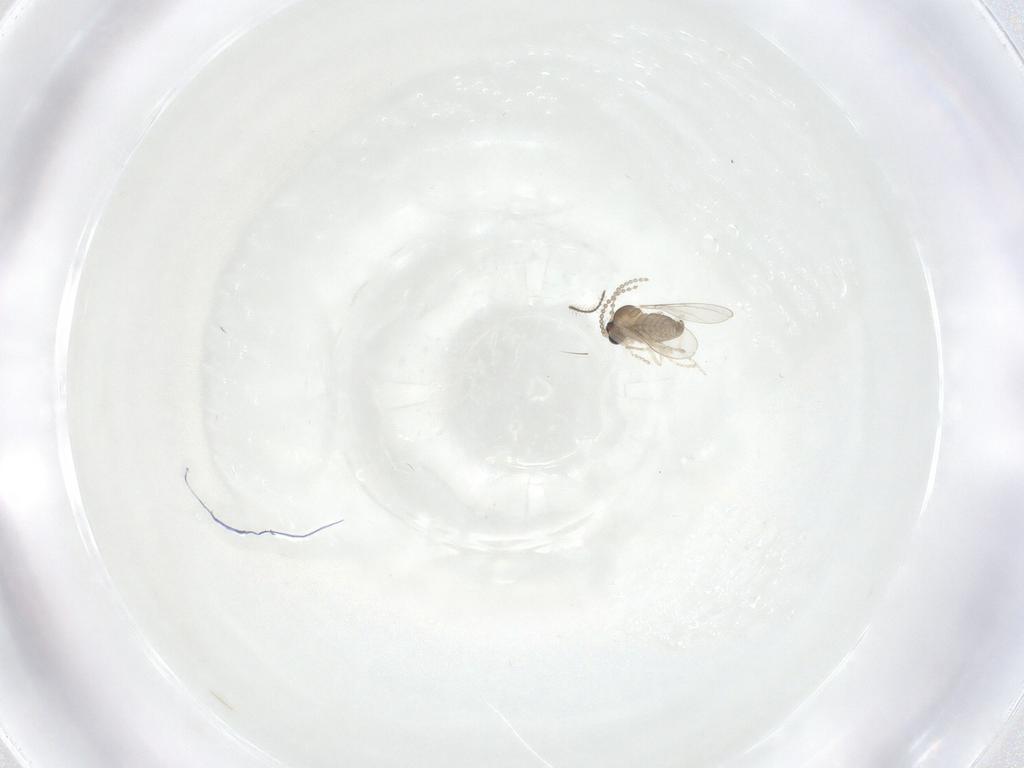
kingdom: Animalia
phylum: Arthropoda
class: Insecta
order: Diptera
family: Cecidomyiidae
